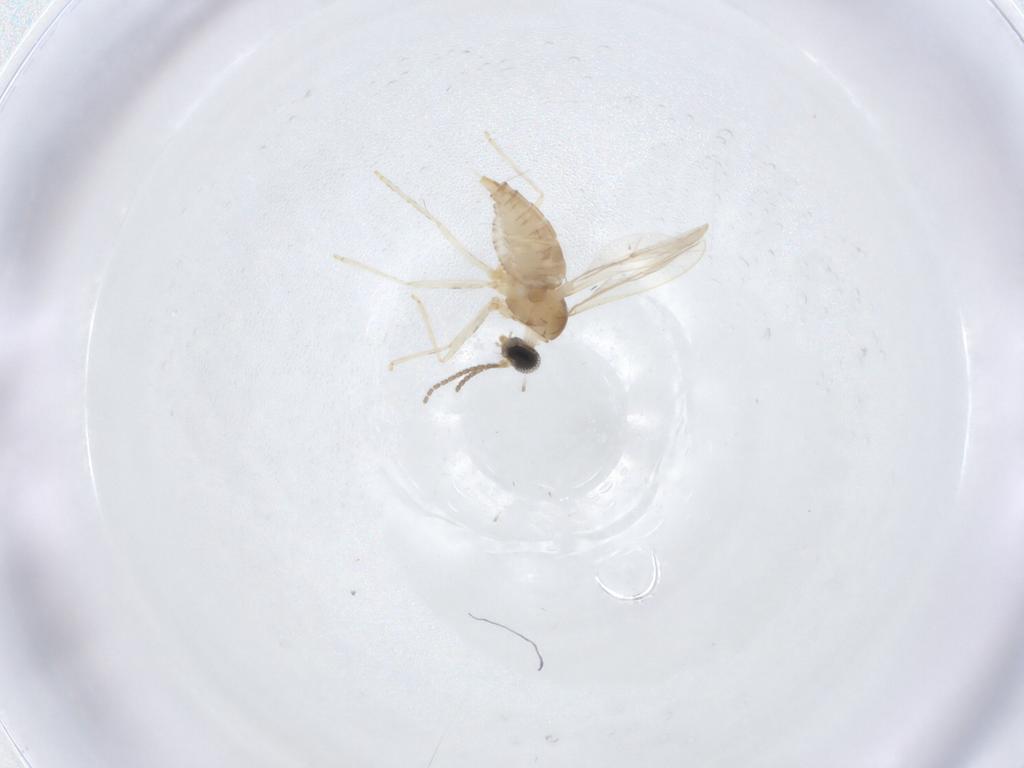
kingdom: Animalia
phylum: Arthropoda
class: Insecta
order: Diptera
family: Cecidomyiidae
